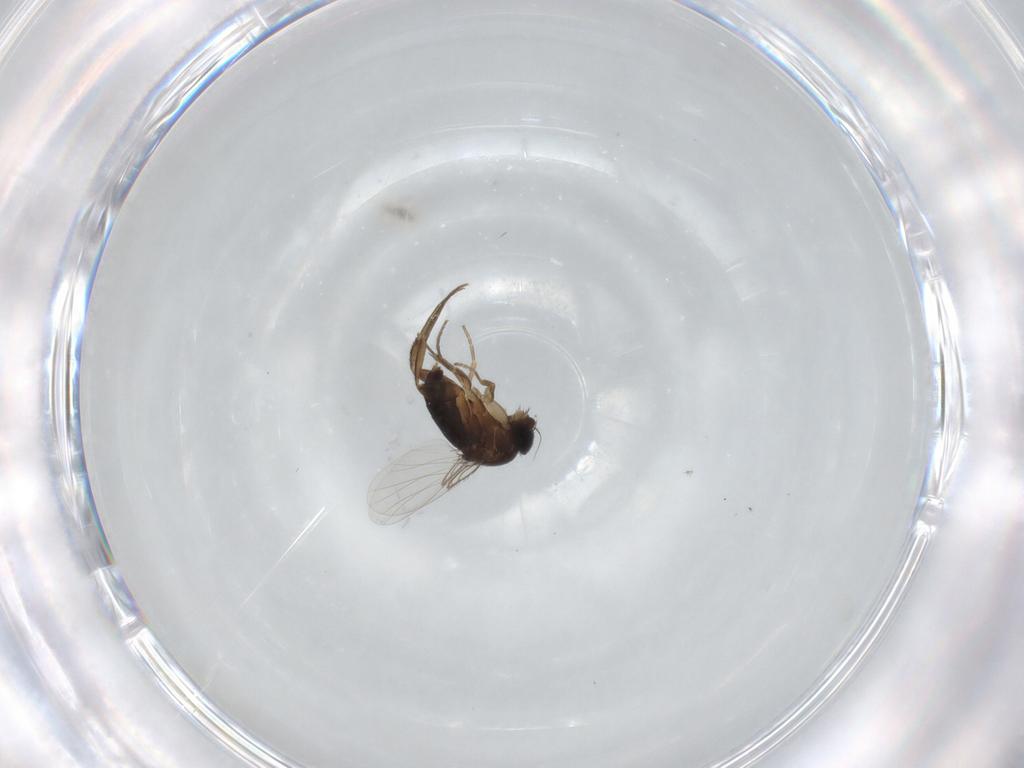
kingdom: Animalia
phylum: Arthropoda
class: Insecta
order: Diptera
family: Phoridae
